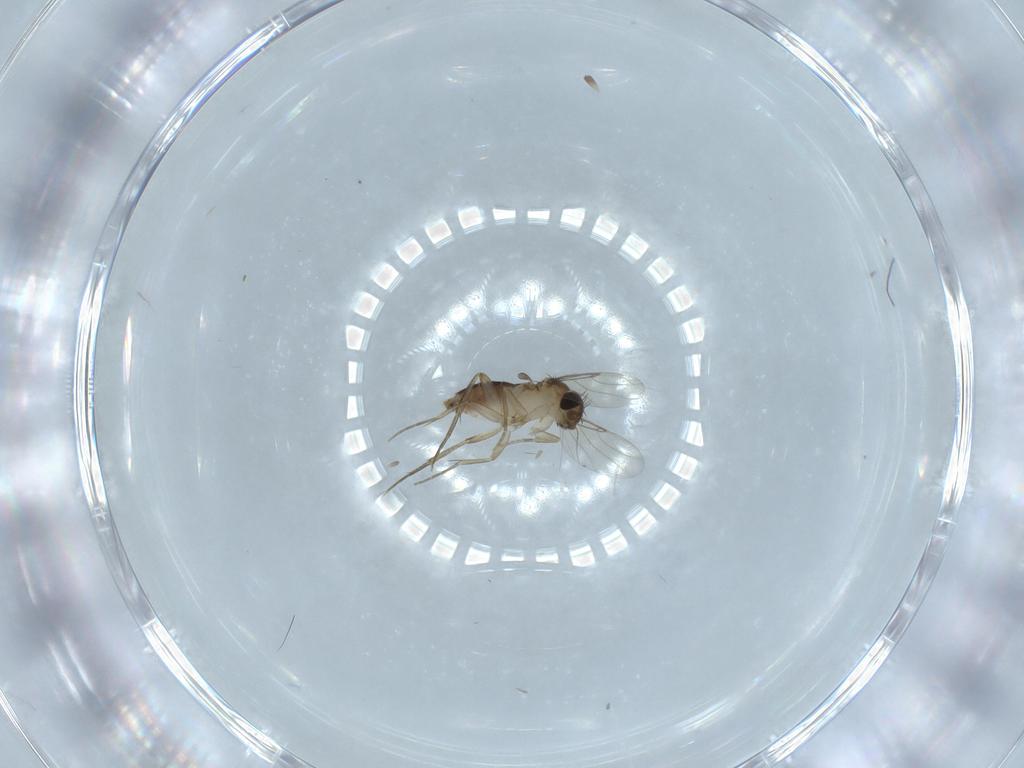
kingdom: Animalia
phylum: Arthropoda
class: Insecta
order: Diptera
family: Phoridae
